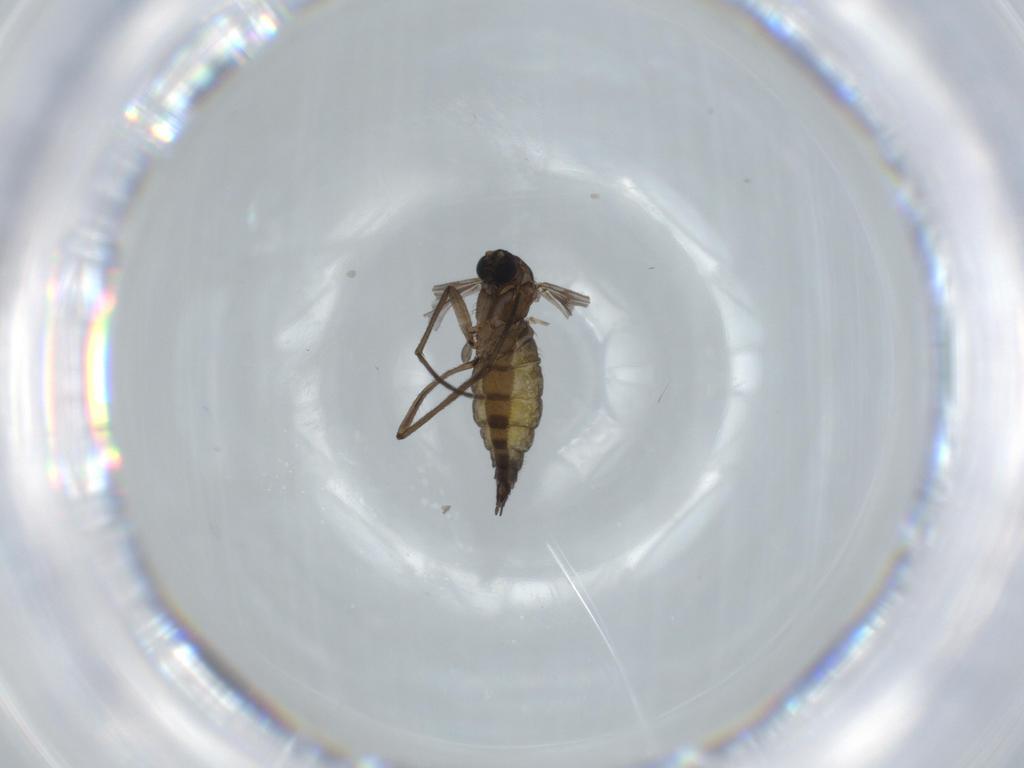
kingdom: Animalia
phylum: Arthropoda
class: Insecta
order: Diptera
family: Sciaridae
